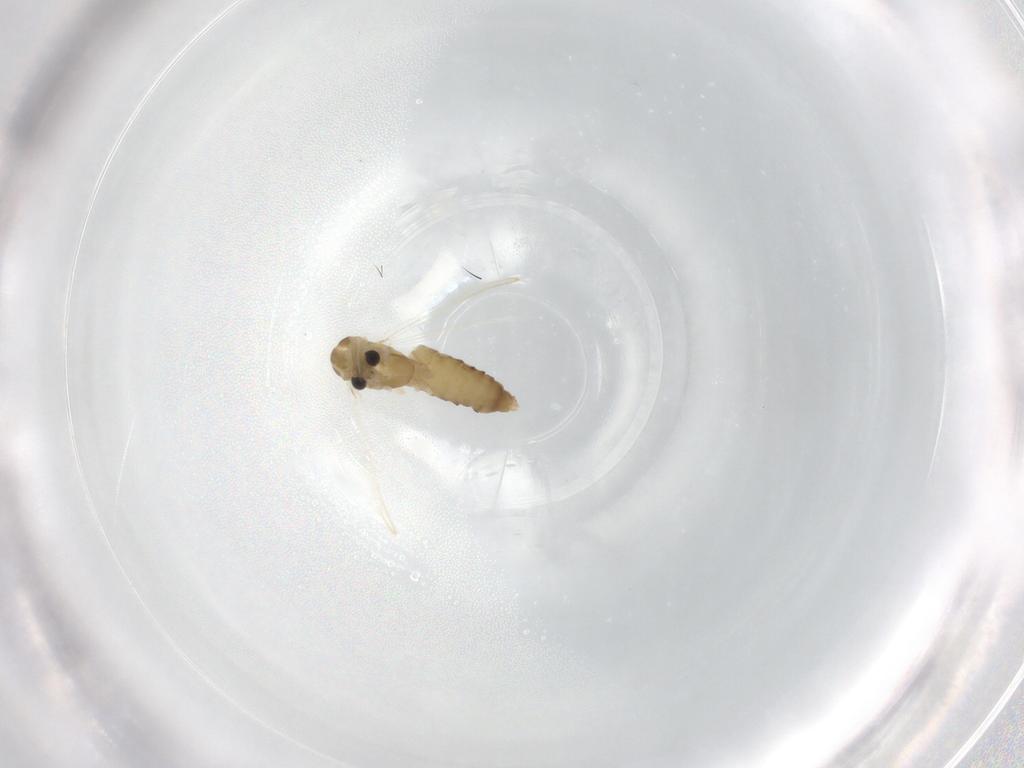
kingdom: Animalia
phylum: Arthropoda
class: Insecta
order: Diptera
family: Chironomidae
